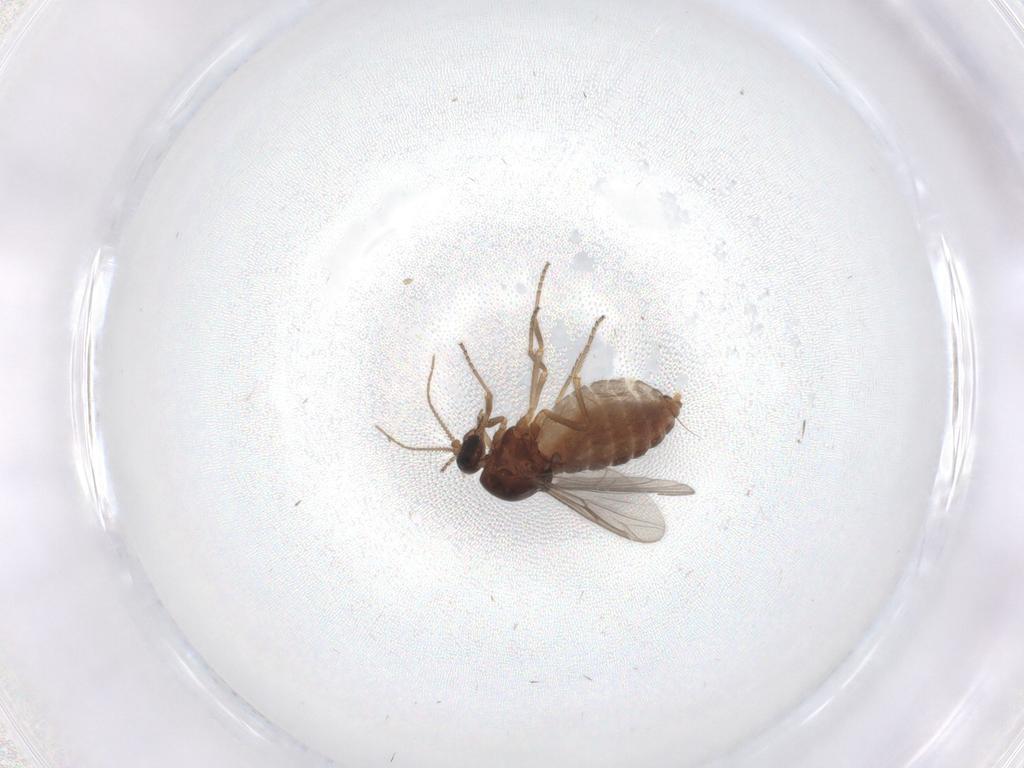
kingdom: Animalia
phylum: Arthropoda
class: Insecta
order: Diptera
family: Ceratopogonidae
